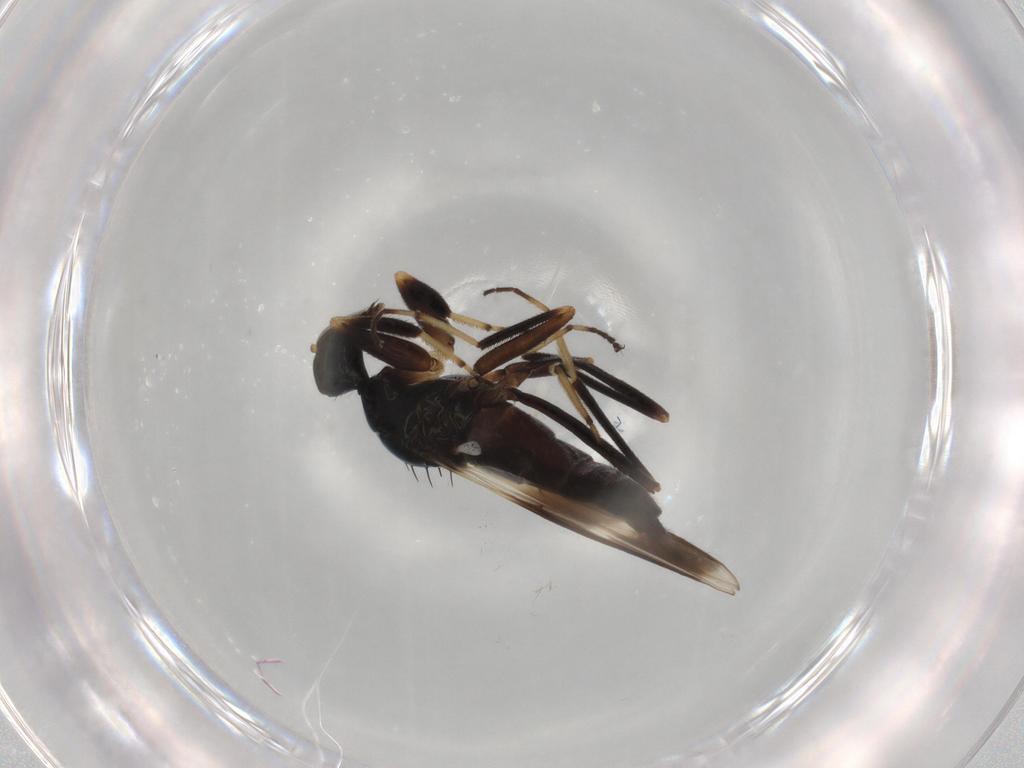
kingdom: Animalia
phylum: Arthropoda
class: Insecta
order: Diptera
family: Hybotidae
